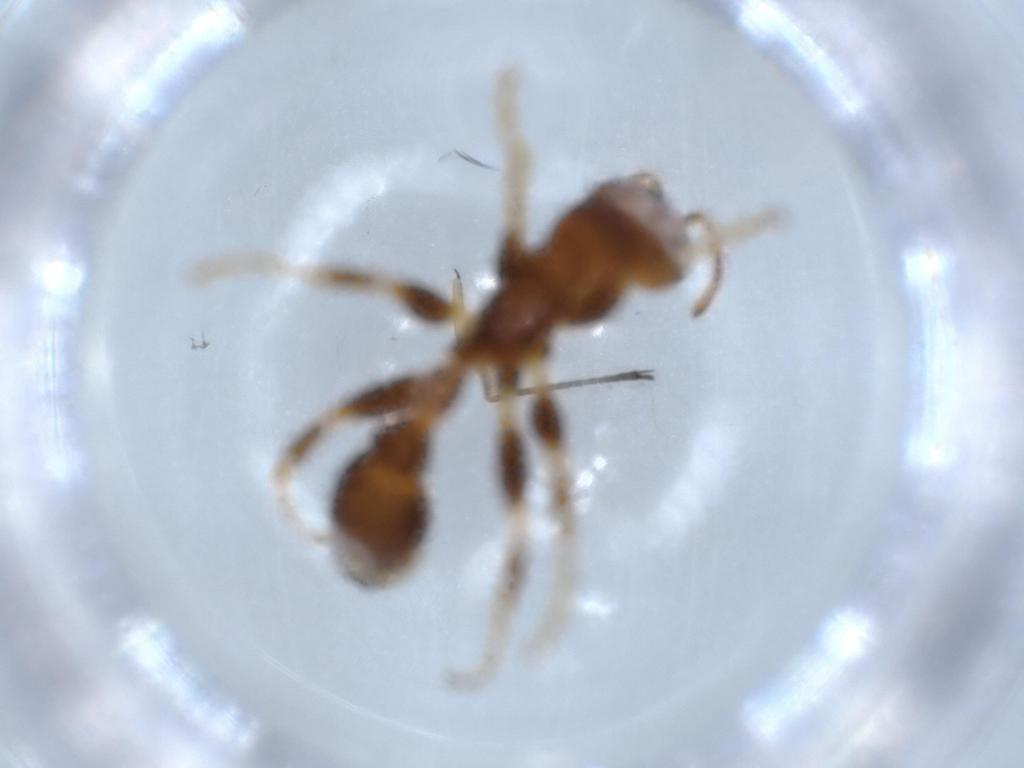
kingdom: Animalia
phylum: Arthropoda
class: Insecta
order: Hymenoptera
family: Formicidae
